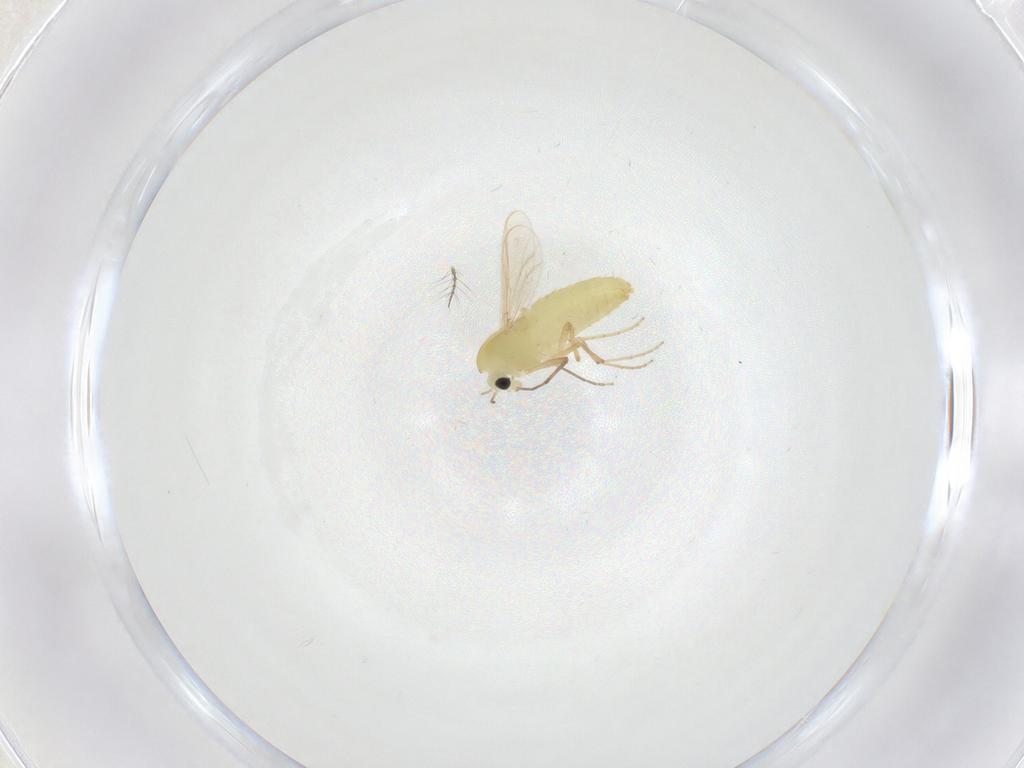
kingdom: Animalia
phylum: Arthropoda
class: Insecta
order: Diptera
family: Chironomidae
